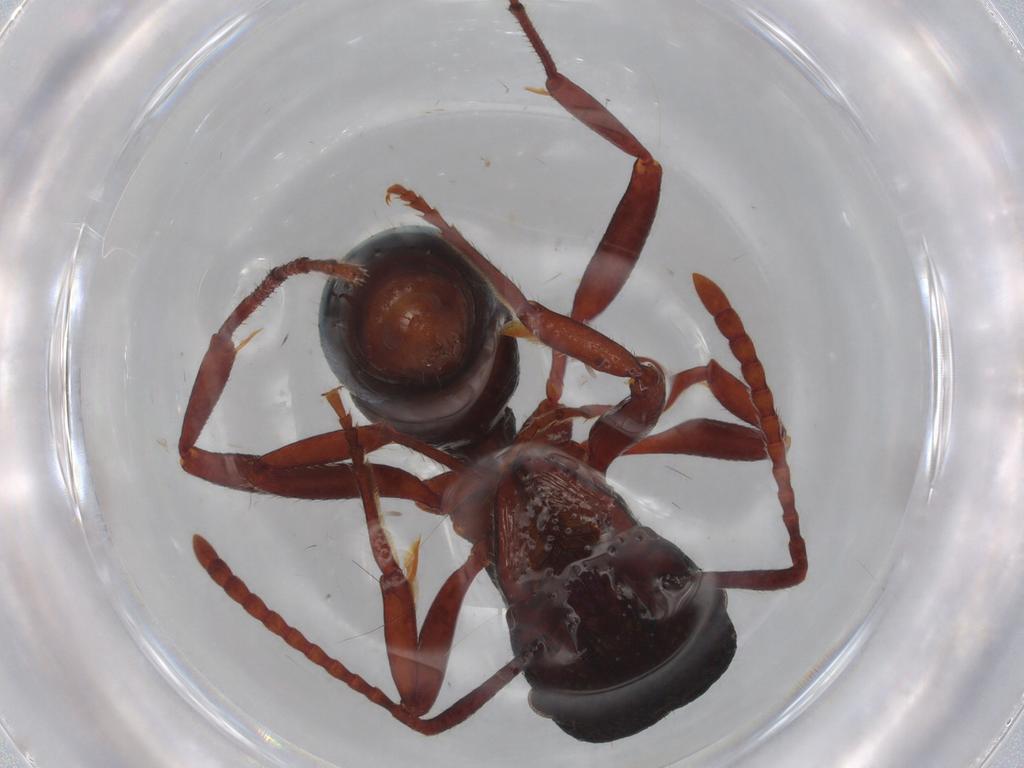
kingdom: Animalia
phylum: Arthropoda
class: Insecta
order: Hymenoptera
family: Formicidae
